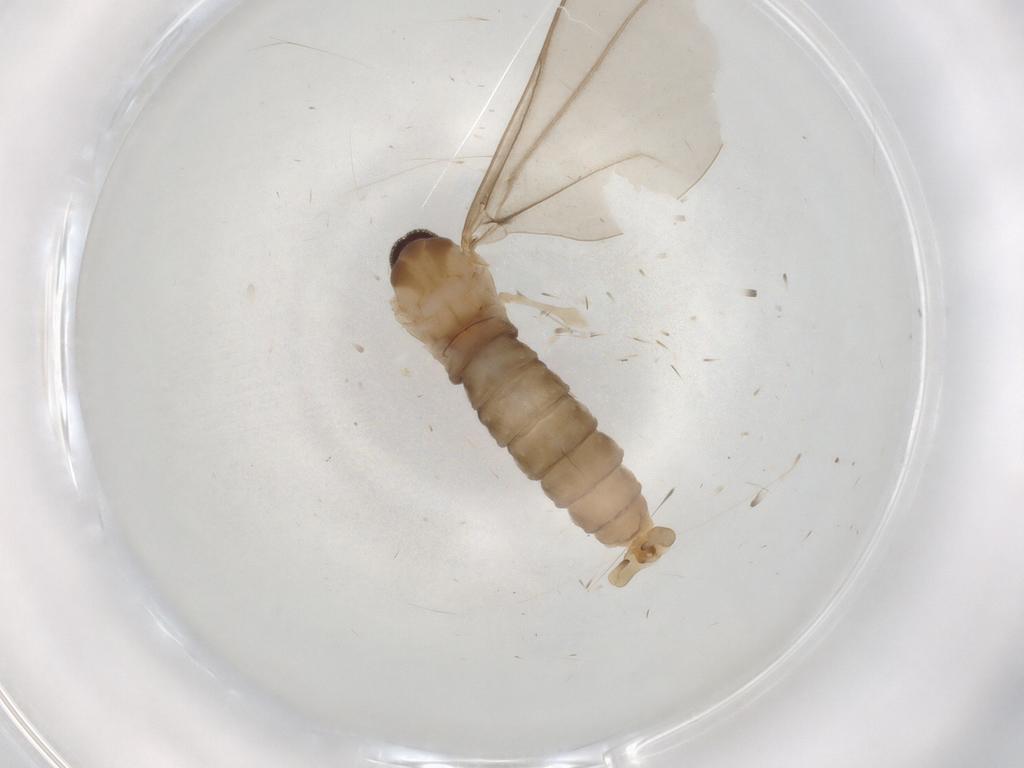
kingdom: Animalia
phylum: Arthropoda
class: Insecta
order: Diptera
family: Cecidomyiidae
